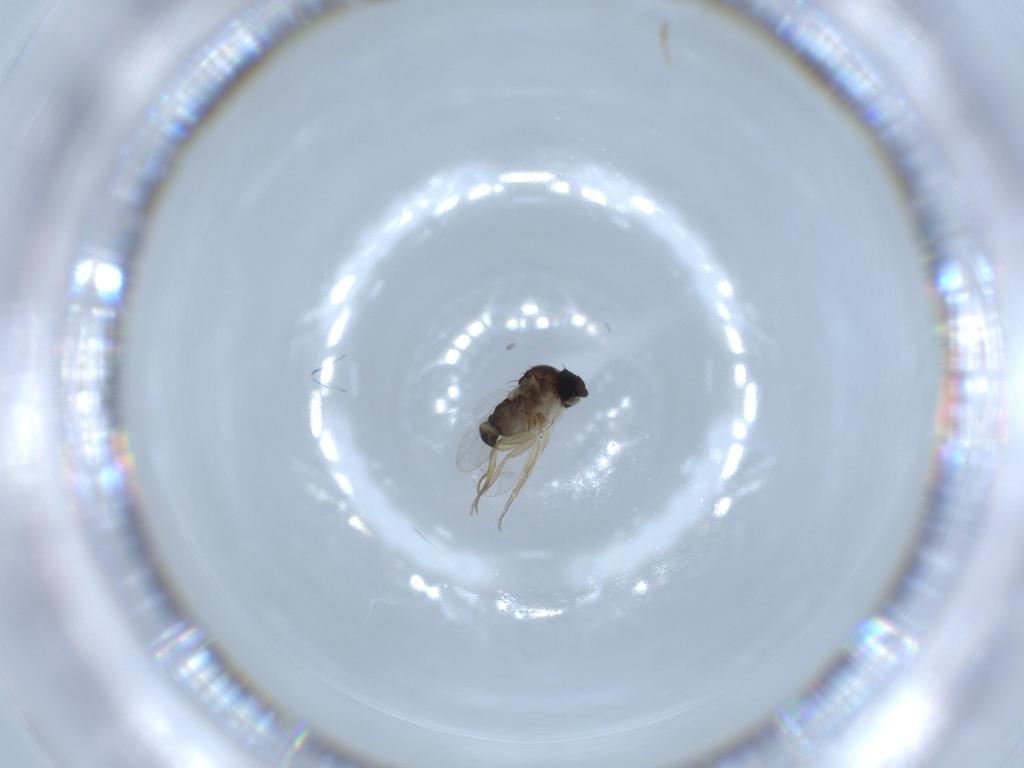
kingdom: Animalia
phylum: Arthropoda
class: Insecta
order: Diptera
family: Phoridae
